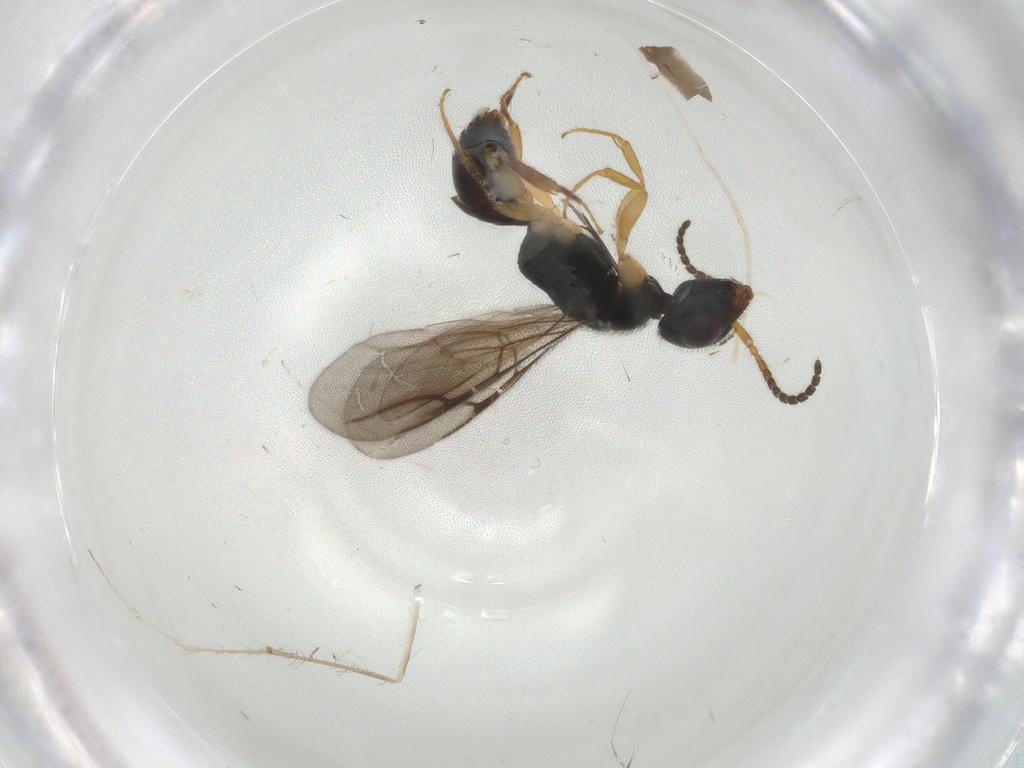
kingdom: Animalia
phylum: Arthropoda
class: Insecta
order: Hymenoptera
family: Bethylidae
